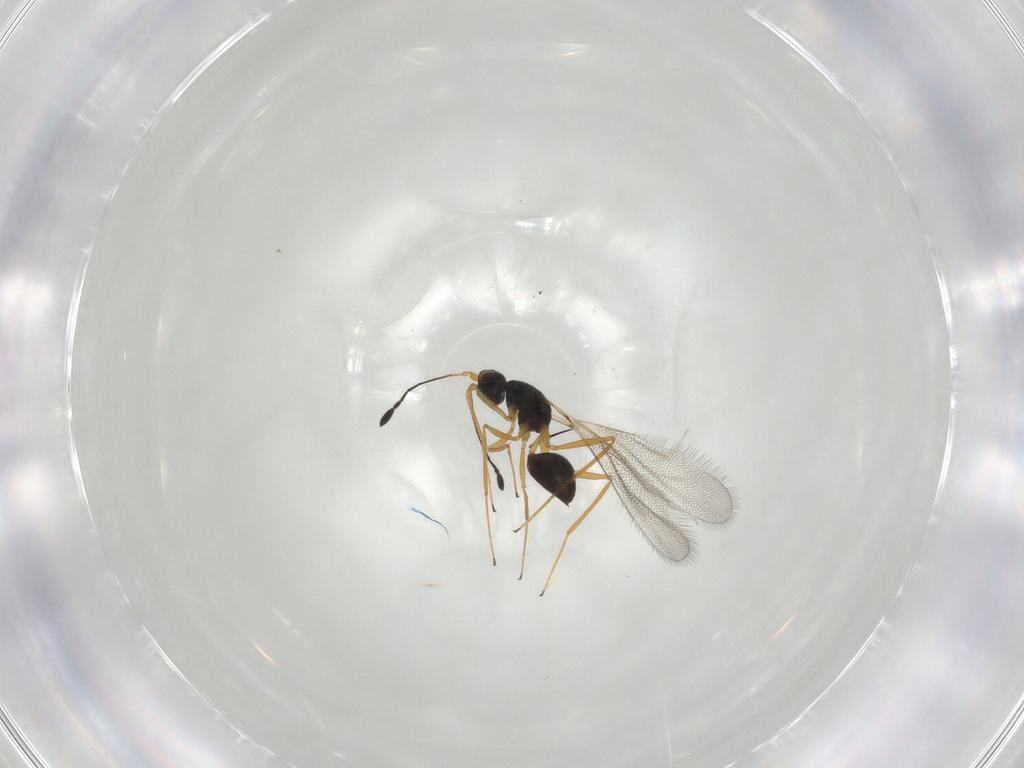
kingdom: Animalia
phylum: Arthropoda
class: Insecta
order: Hymenoptera
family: Mymaridae
